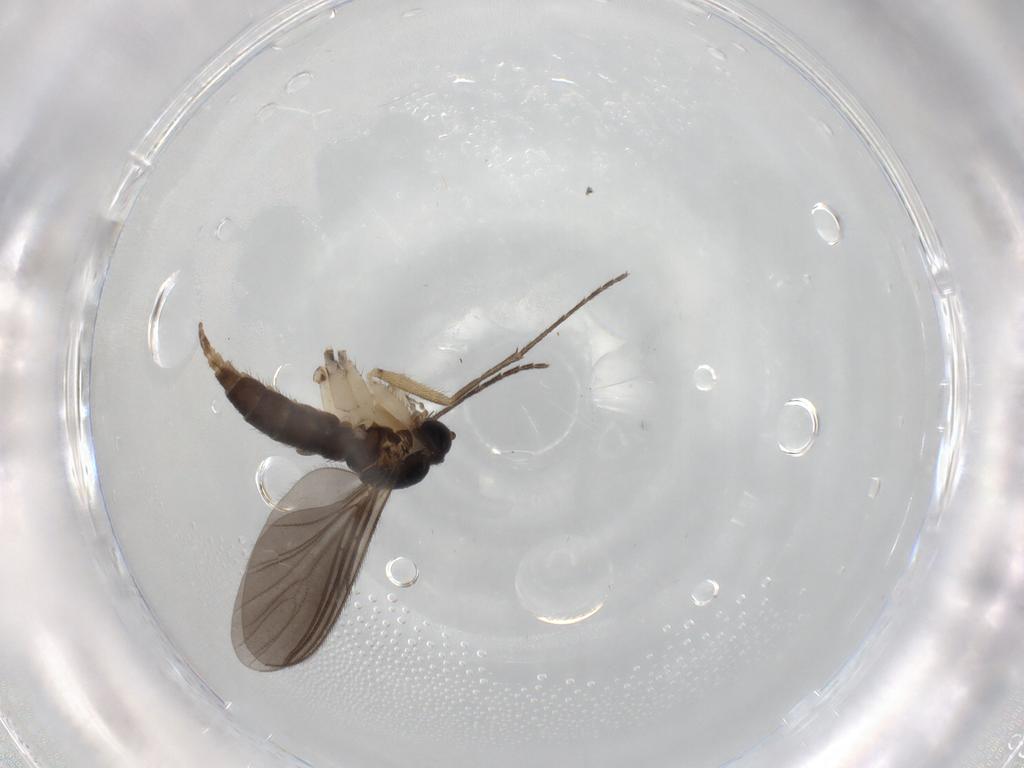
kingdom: Animalia
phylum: Arthropoda
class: Insecta
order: Diptera
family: Sciaridae
